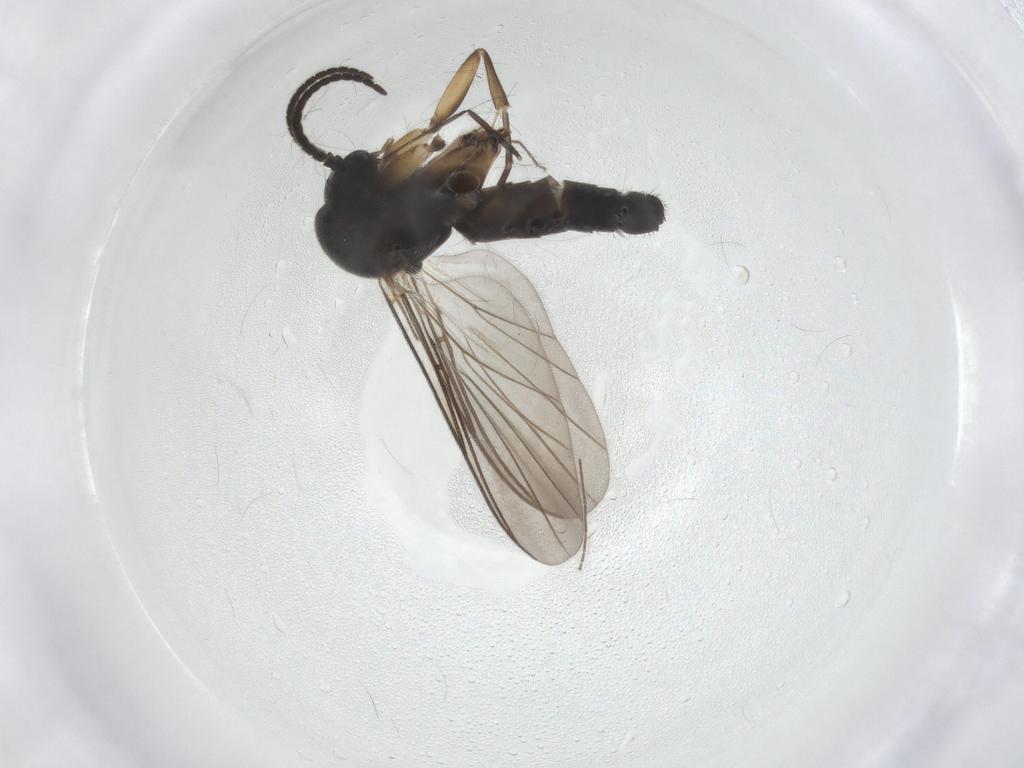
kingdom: Animalia
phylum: Arthropoda
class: Insecta
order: Diptera
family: Mycetophilidae
